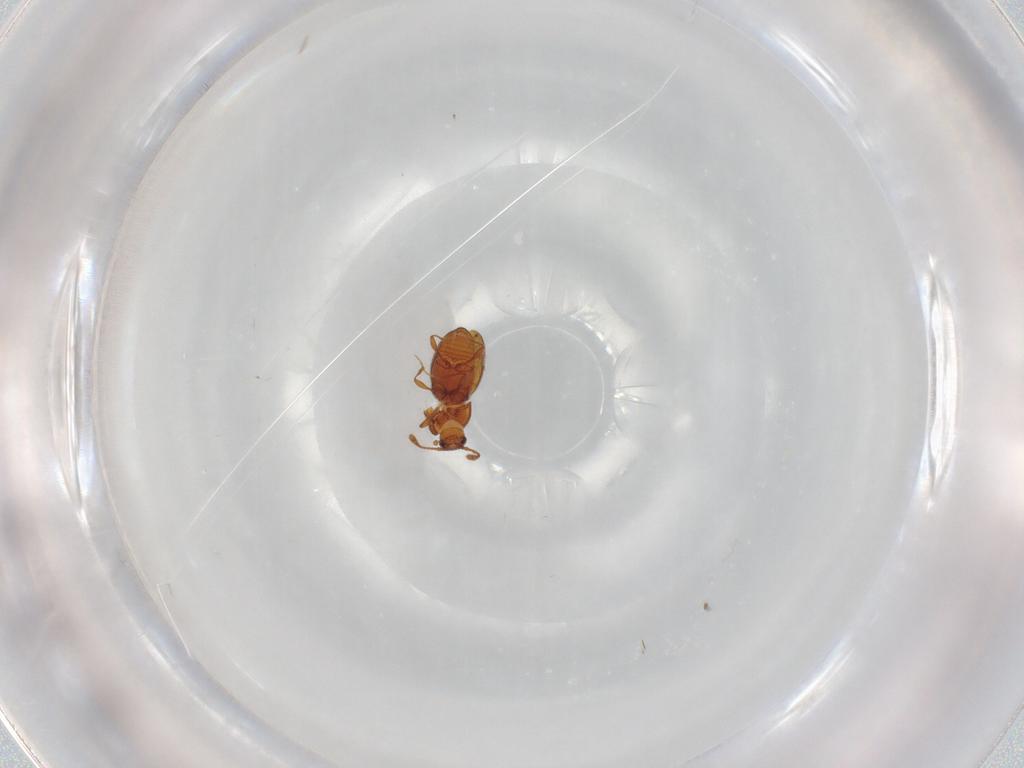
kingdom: Animalia
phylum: Arthropoda
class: Insecta
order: Coleoptera
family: Staphylinidae
